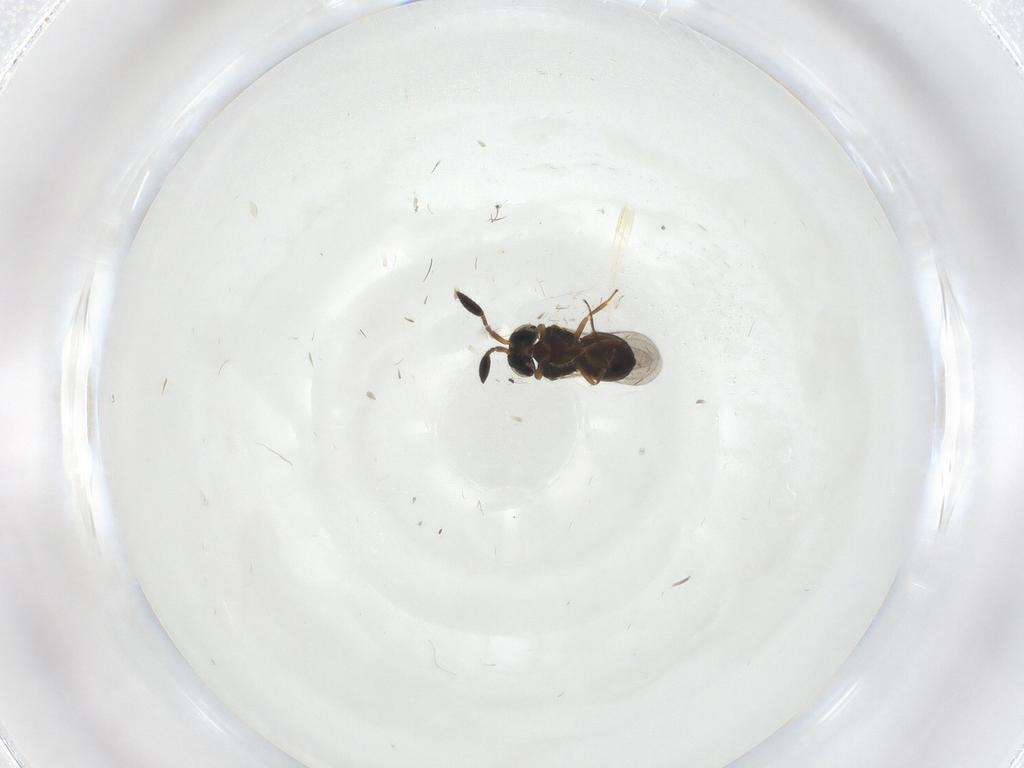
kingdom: Animalia
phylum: Arthropoda
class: Insecta
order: Hymenoptera
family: Scelionidae
